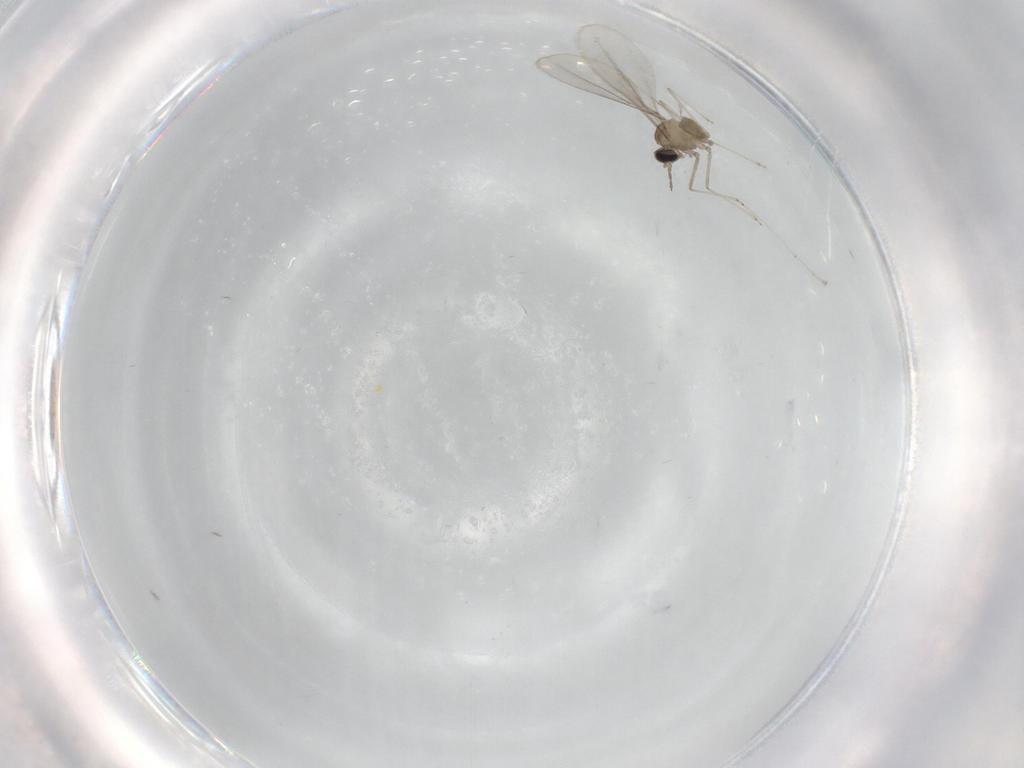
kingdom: Animalia
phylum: Arthropoda
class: Insecta
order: Diptera
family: Cecidomyiidae
